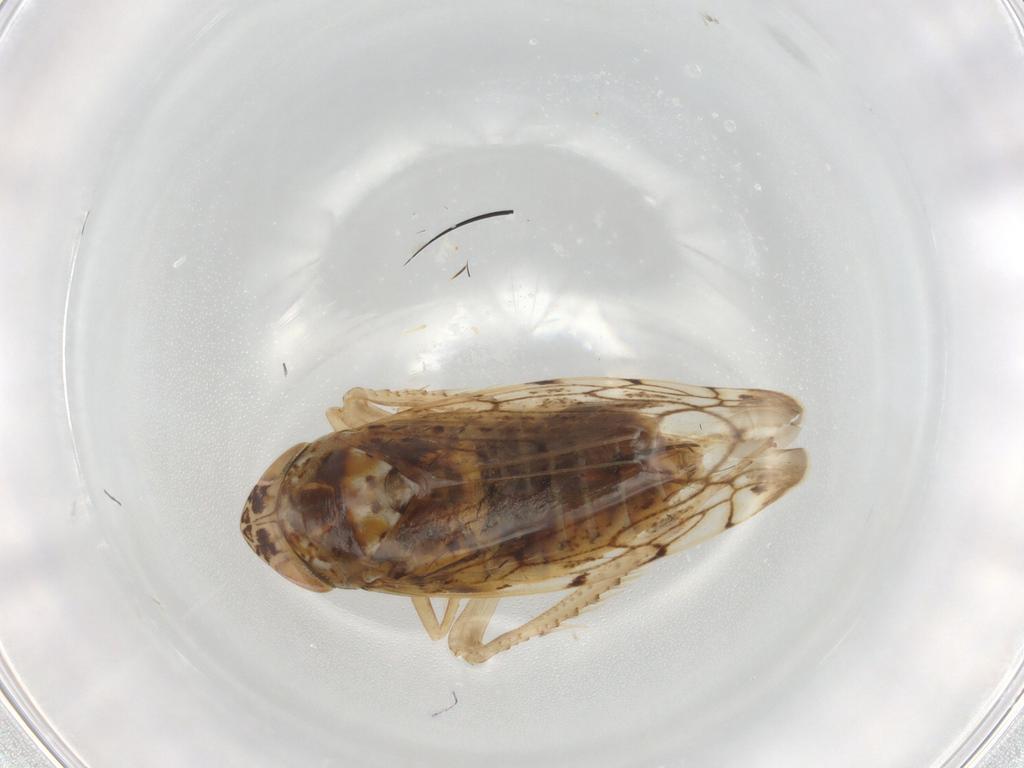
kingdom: Animalia
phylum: Arthropoda
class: Insecta
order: Hemiptera
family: Cicadellidae
